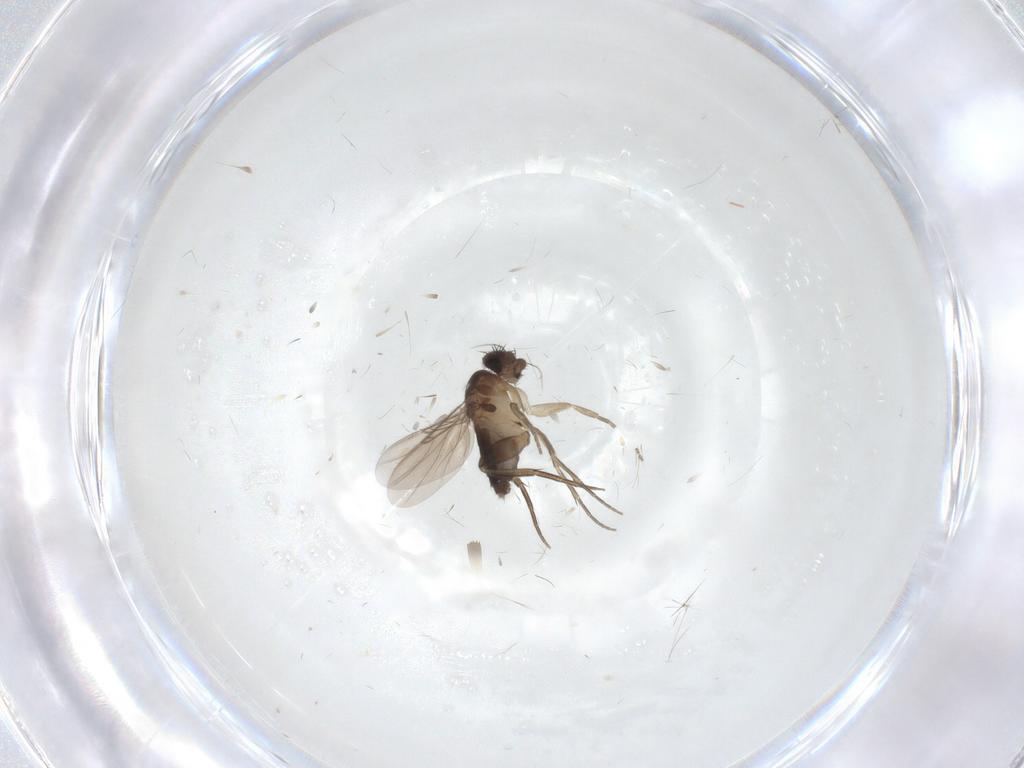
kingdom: Animalia
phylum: Arthropoda
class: Insecta
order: Diptera
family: Phoridae
